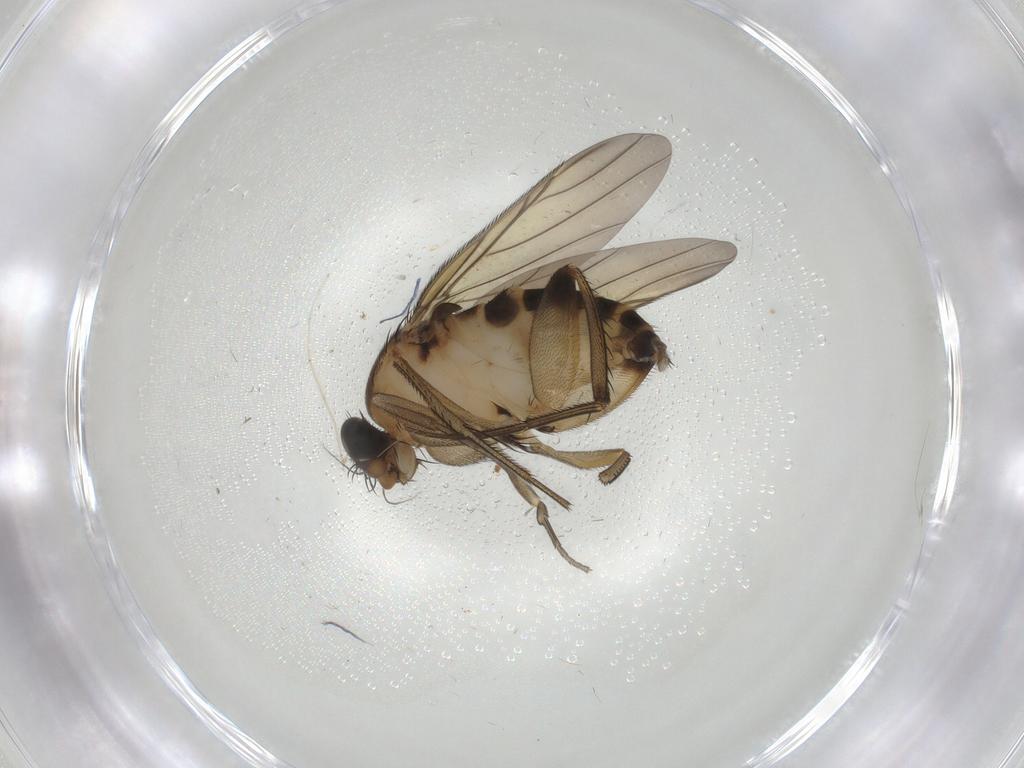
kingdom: Animalia
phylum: Arthropoda
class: Insecta
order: Diptera
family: Phoridae
